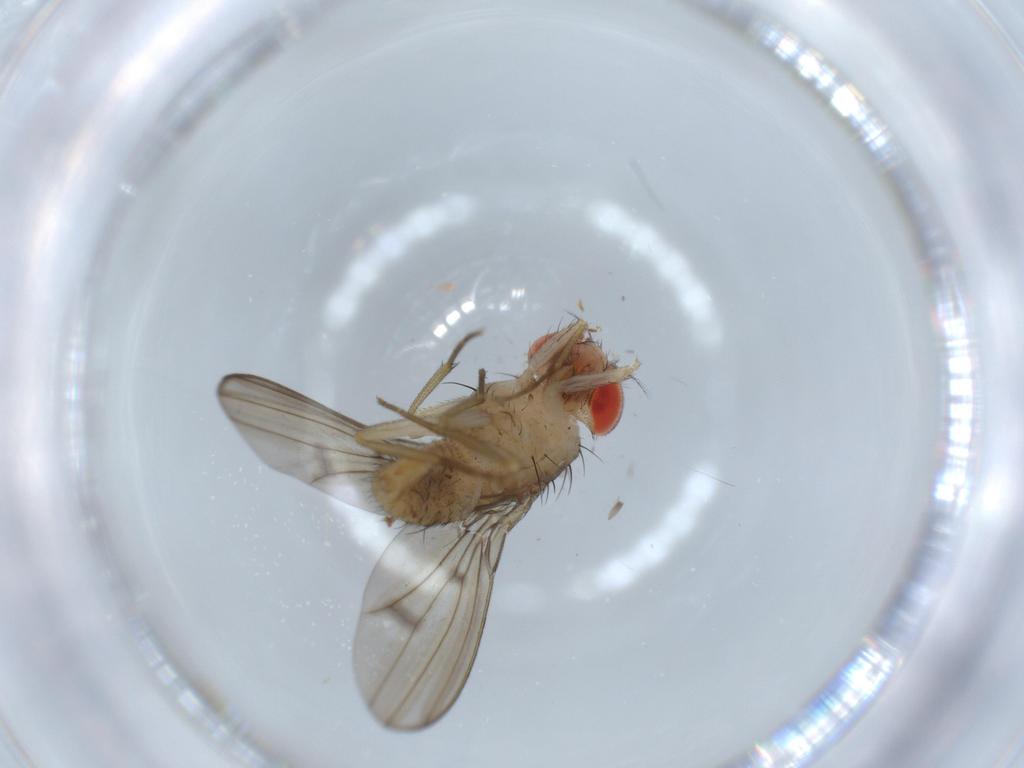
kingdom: Animalia
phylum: Arthropoda
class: Insecta
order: Diptera
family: Drosophilidae
